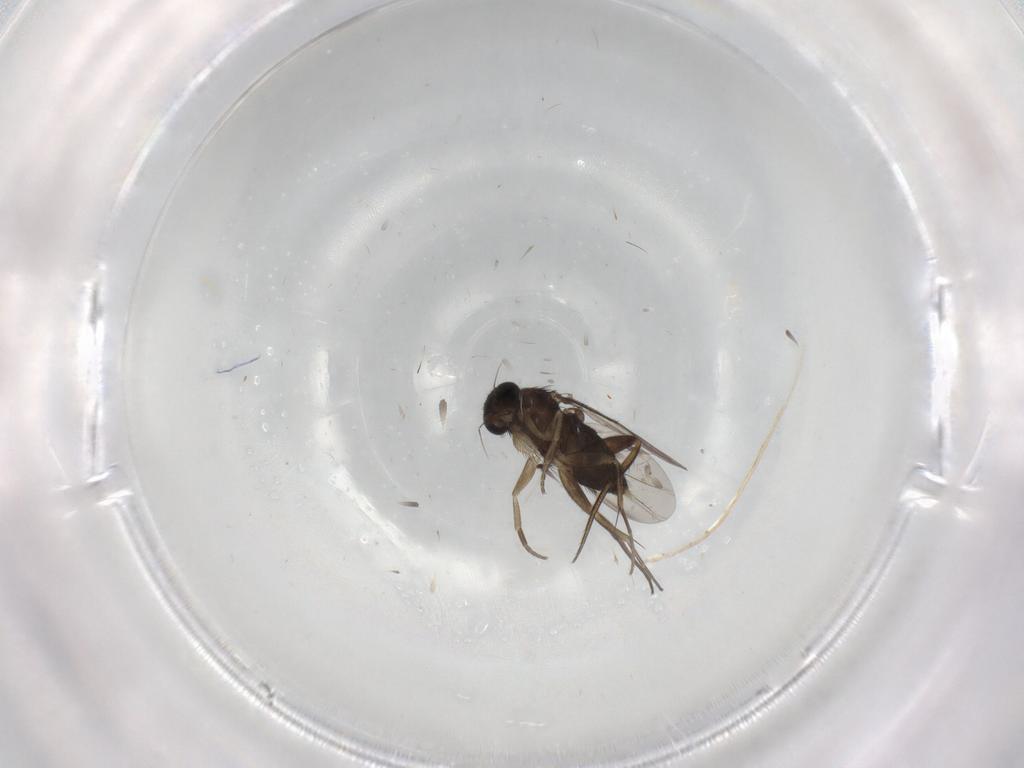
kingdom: Animalia
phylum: Arthropoda
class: Insecta
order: Diptera
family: Phoridae
